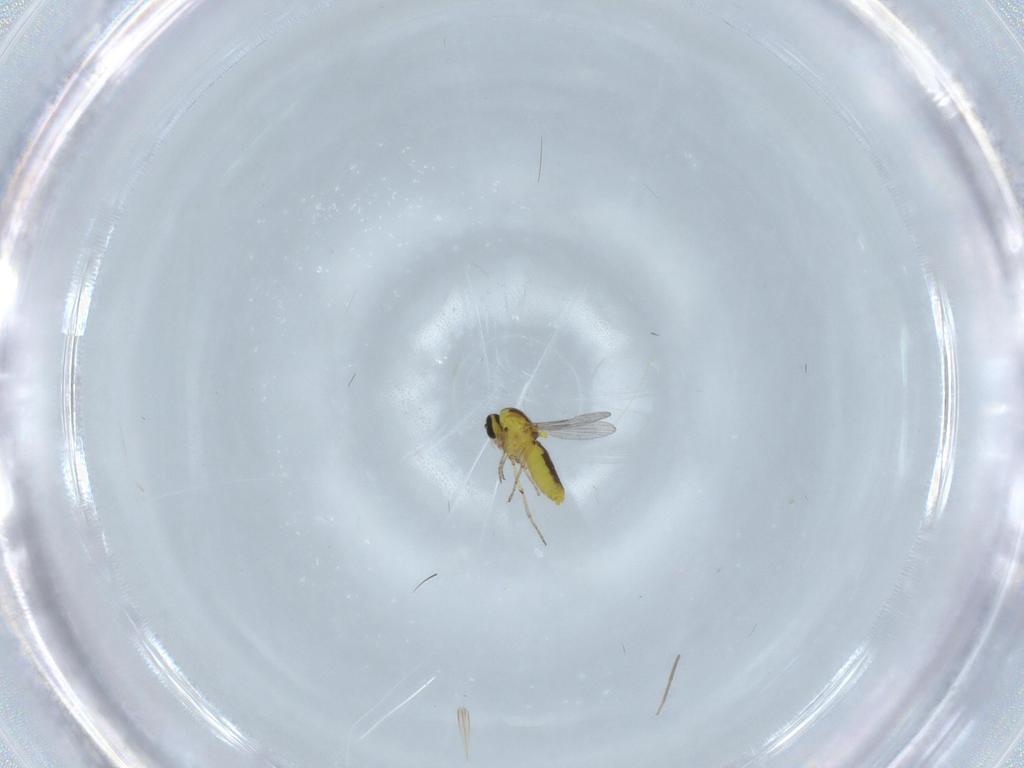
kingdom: Animalia
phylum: Arthropoda
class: Insecta
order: Diptera
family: Ceratopogonidae
